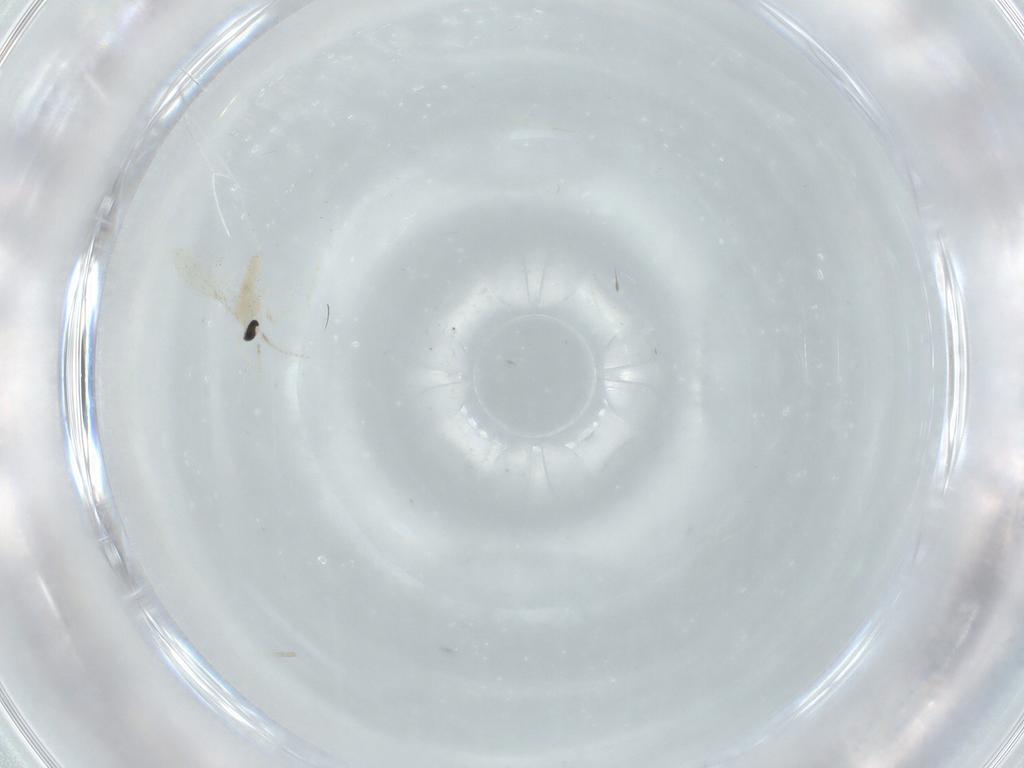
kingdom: Animalia
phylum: Arthropoda
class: Insecta
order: Diptera
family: Cecidomyiidae
